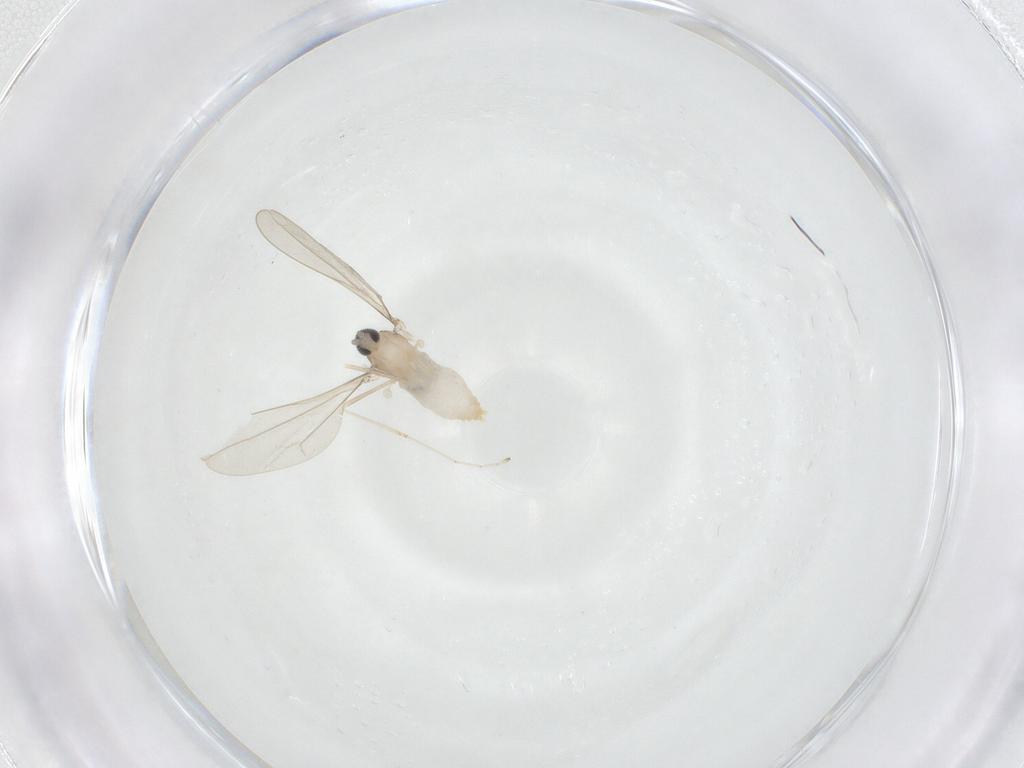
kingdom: Animalia
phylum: Arthropoda
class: Insecta
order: Diptera
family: Cecidomyiidae
